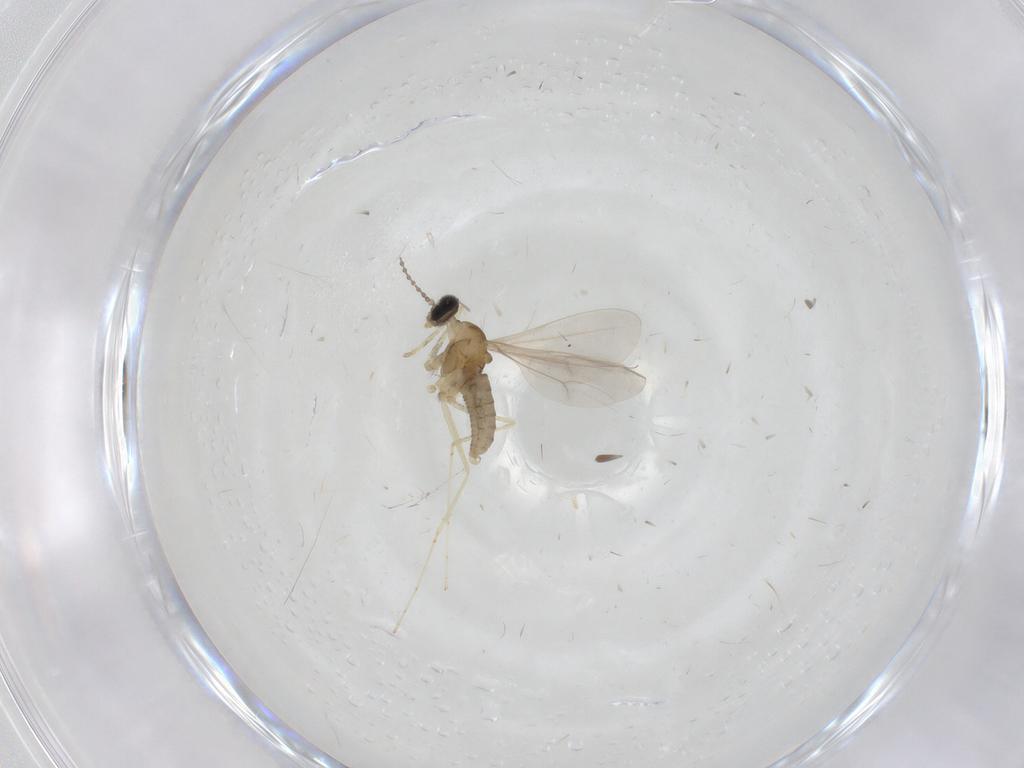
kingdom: Animalia
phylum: Arthropoda
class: Insecta
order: Diptera
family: Cecidomyiidae
